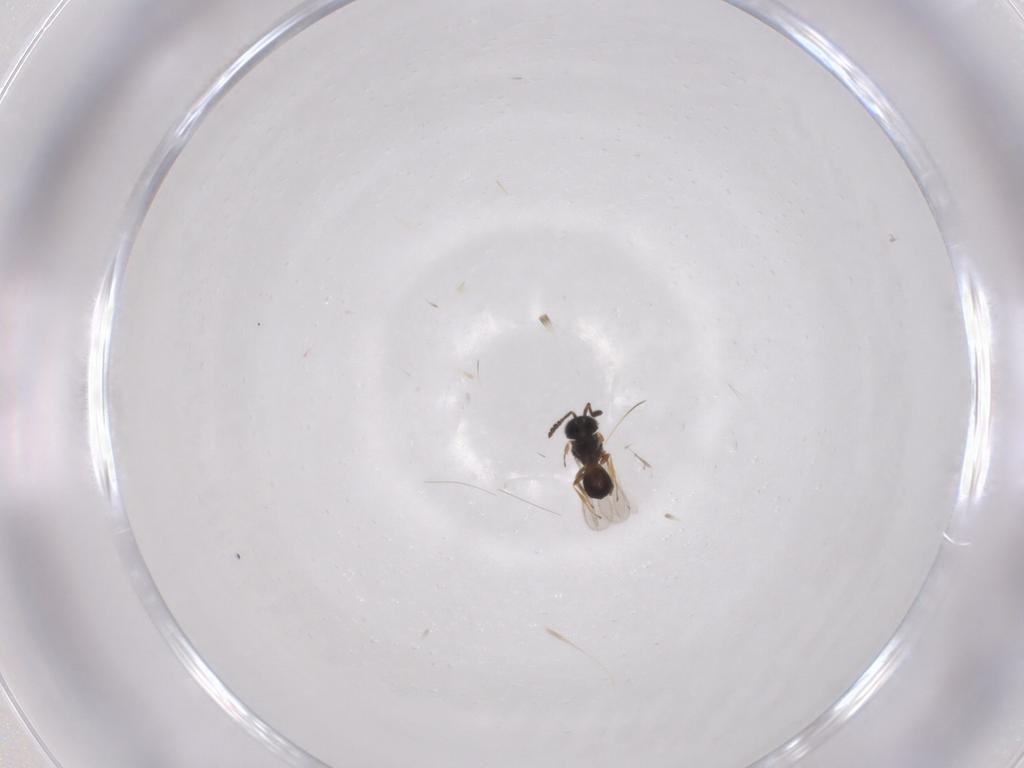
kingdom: Animalia
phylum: Arthropoda
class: Insecta
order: Hymenoptera
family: Scelionidae
